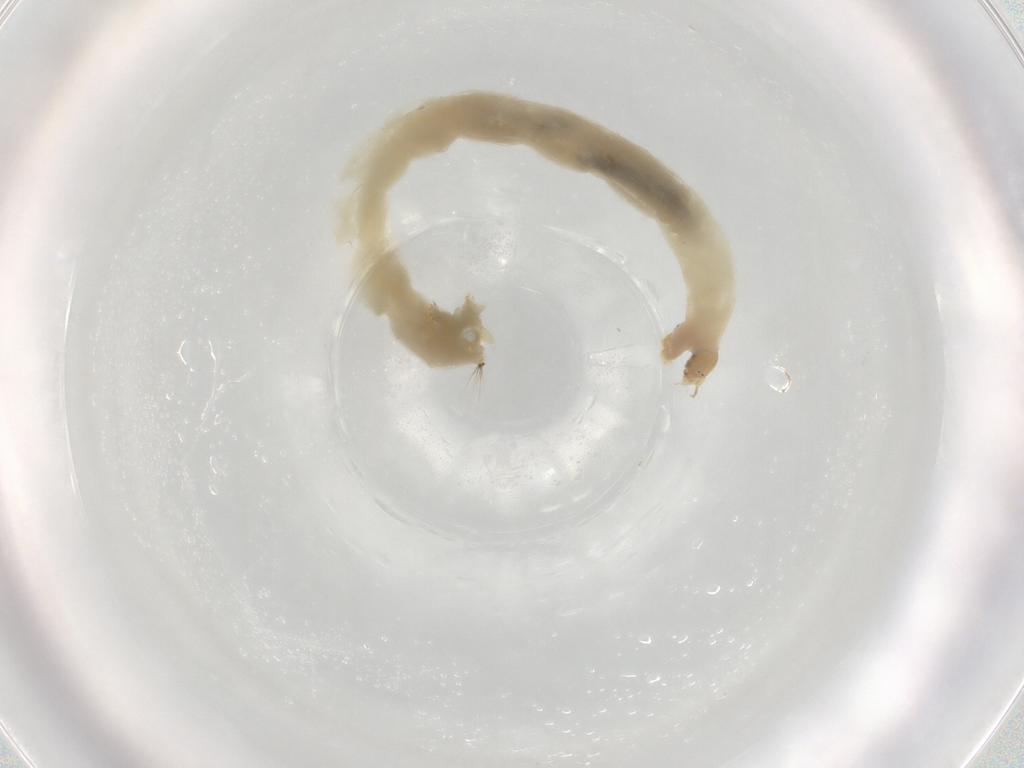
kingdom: Animalia
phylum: Arthropoda
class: Insecta
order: Diptera
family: Chironomidae
